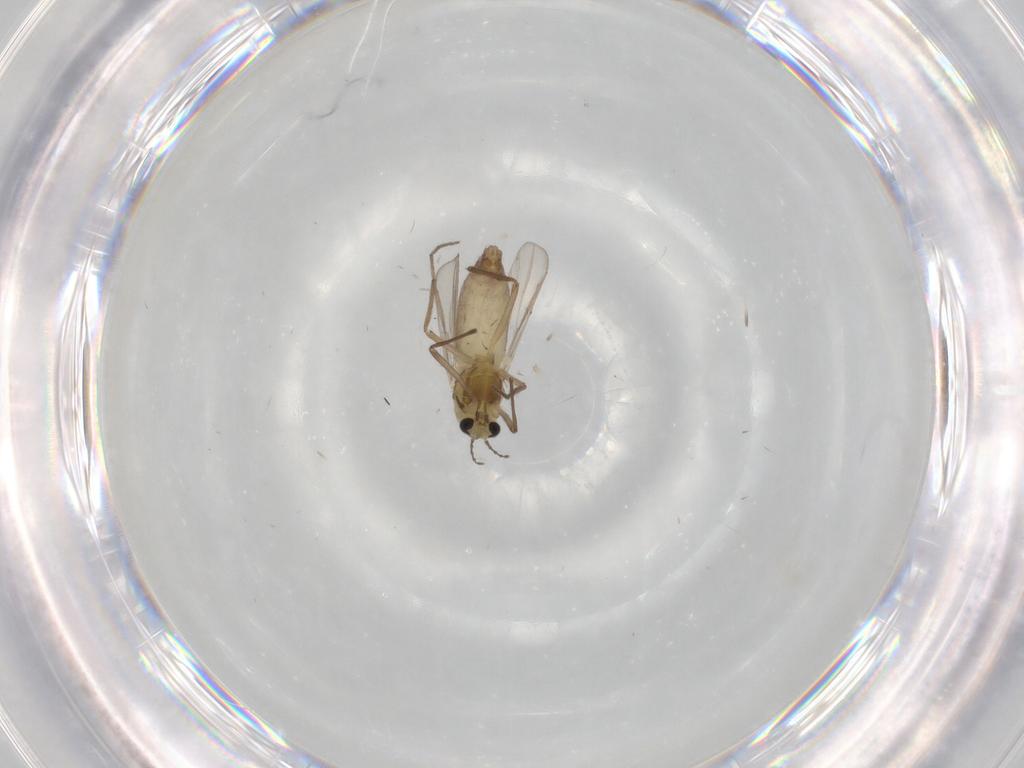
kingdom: Animalia
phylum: Arthropoda
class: Insecta
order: Diptera
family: Chironomidae
